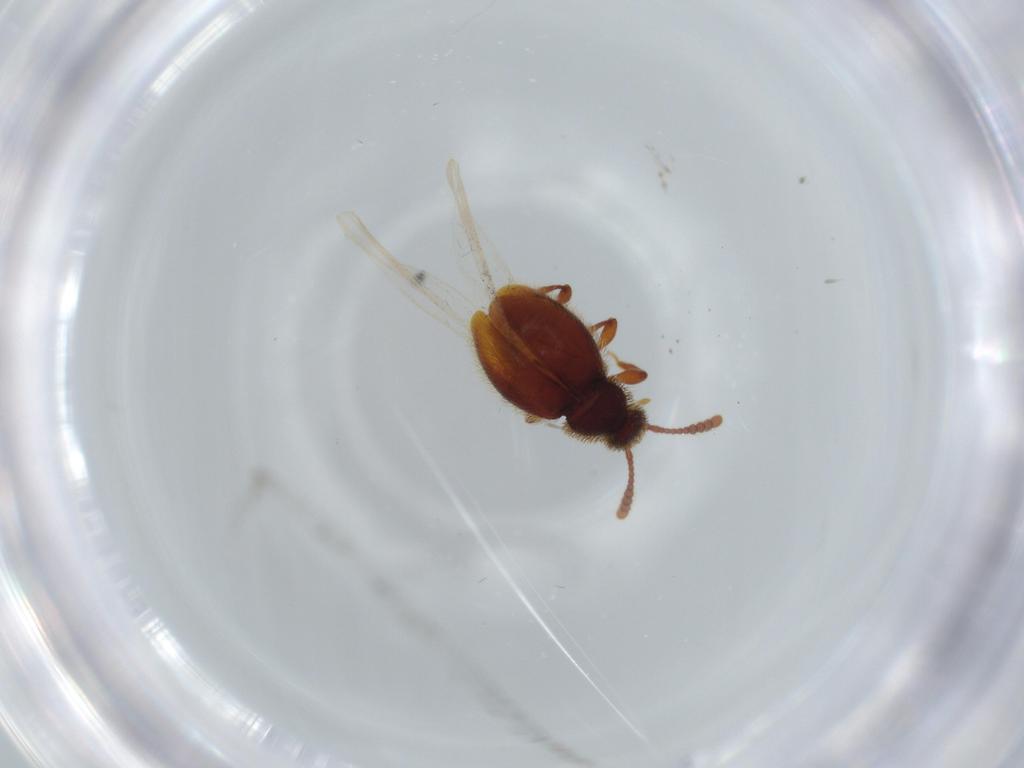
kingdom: Animalia
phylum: Arthropoda
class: Insecta
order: Coleoptera
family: Staphylinidae
